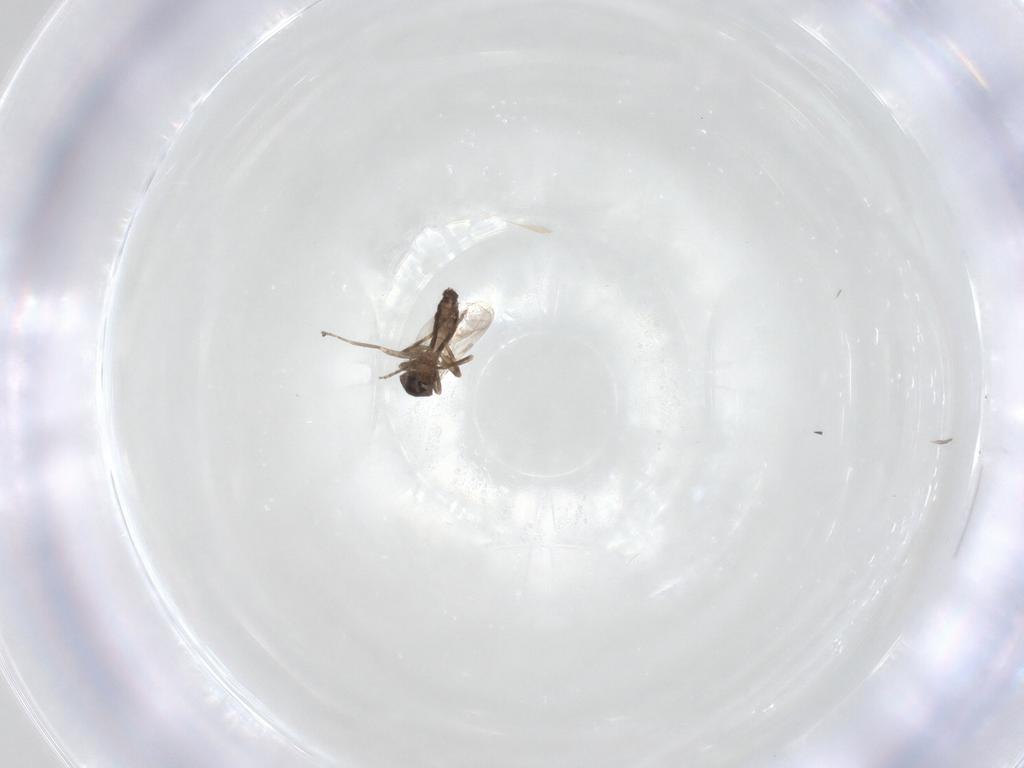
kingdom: Animalia
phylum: Arthropoda
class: Insecta
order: Diptera
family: Ceratopogonidae
